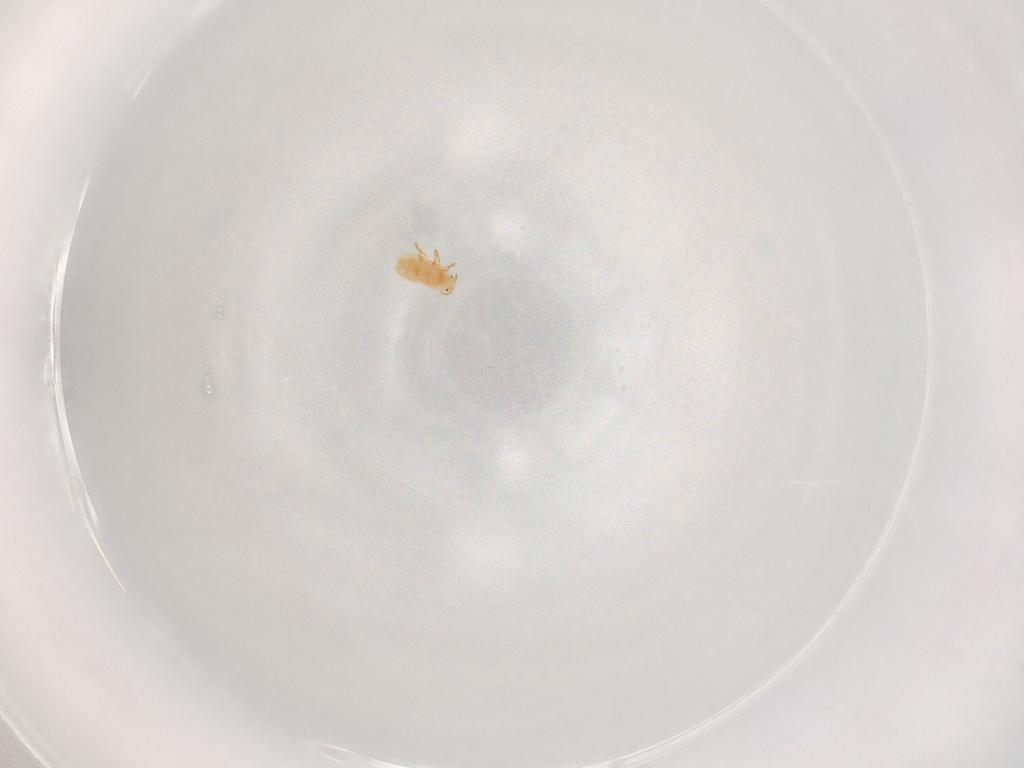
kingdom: Animalia
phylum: Arthropoda
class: Insecta
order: Hemiptera
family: Pseudococcidae
